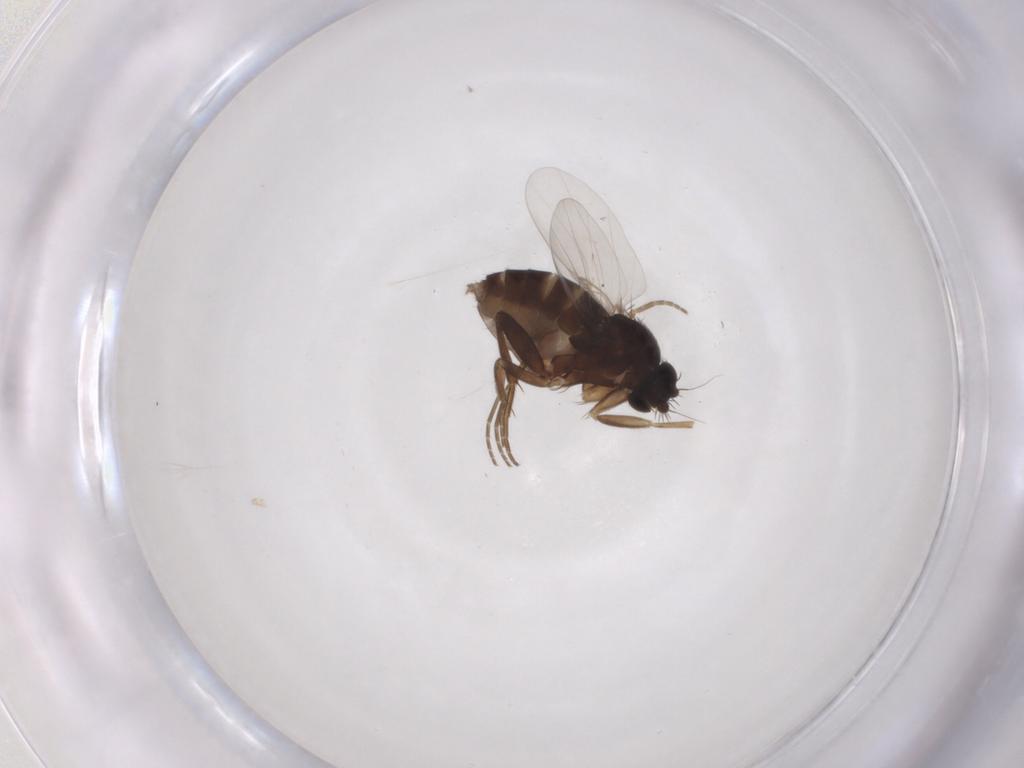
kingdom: Animalia
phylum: Arthropoda
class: Insecta
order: Diptera
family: Phoridae
